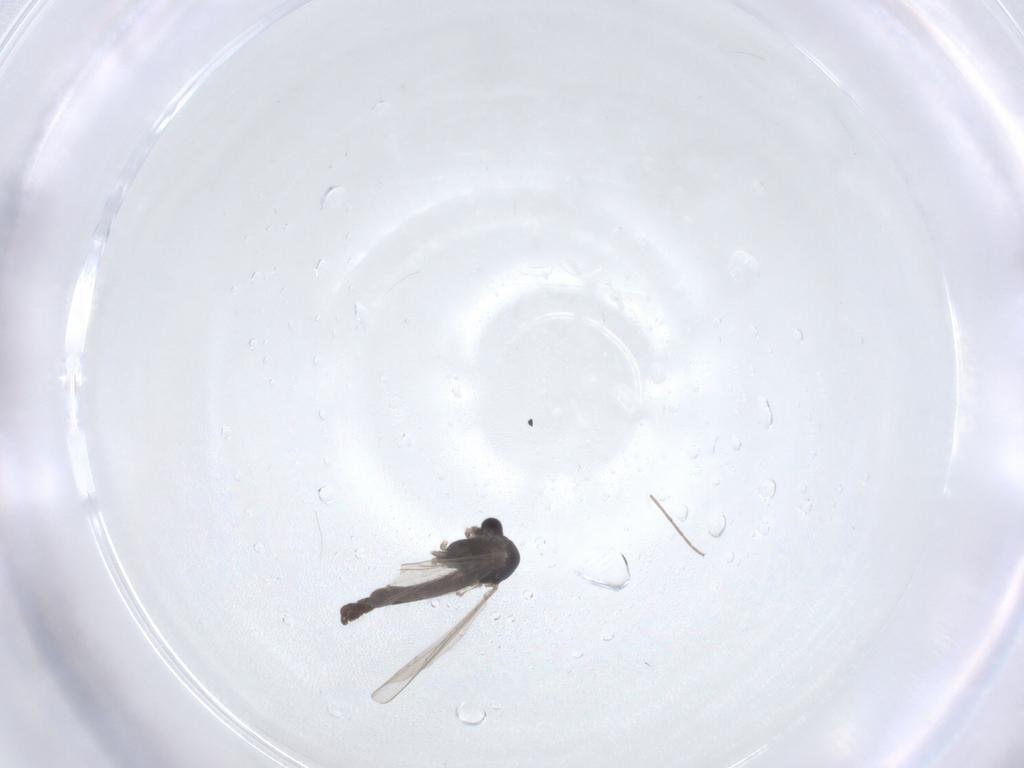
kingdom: Animalia
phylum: Arthropoda
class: Insecta
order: Diptera
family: Chironomidae
